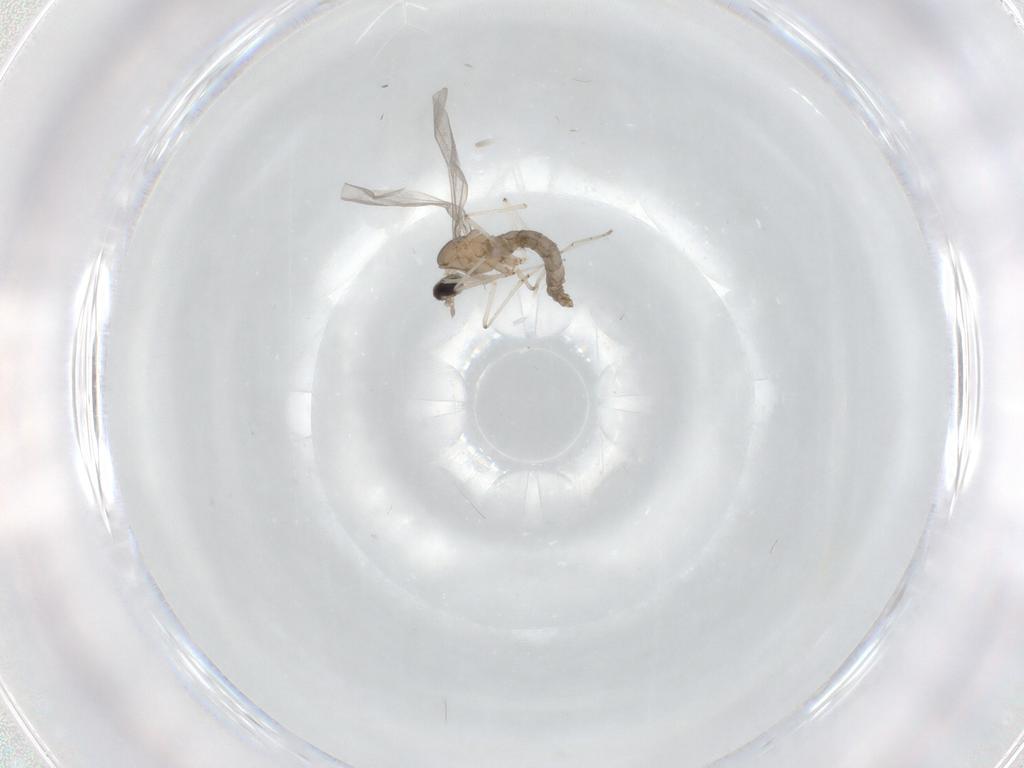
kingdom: Animalia
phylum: Arthropoda
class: Insecta
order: Diptera
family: Cecidomyiidae
